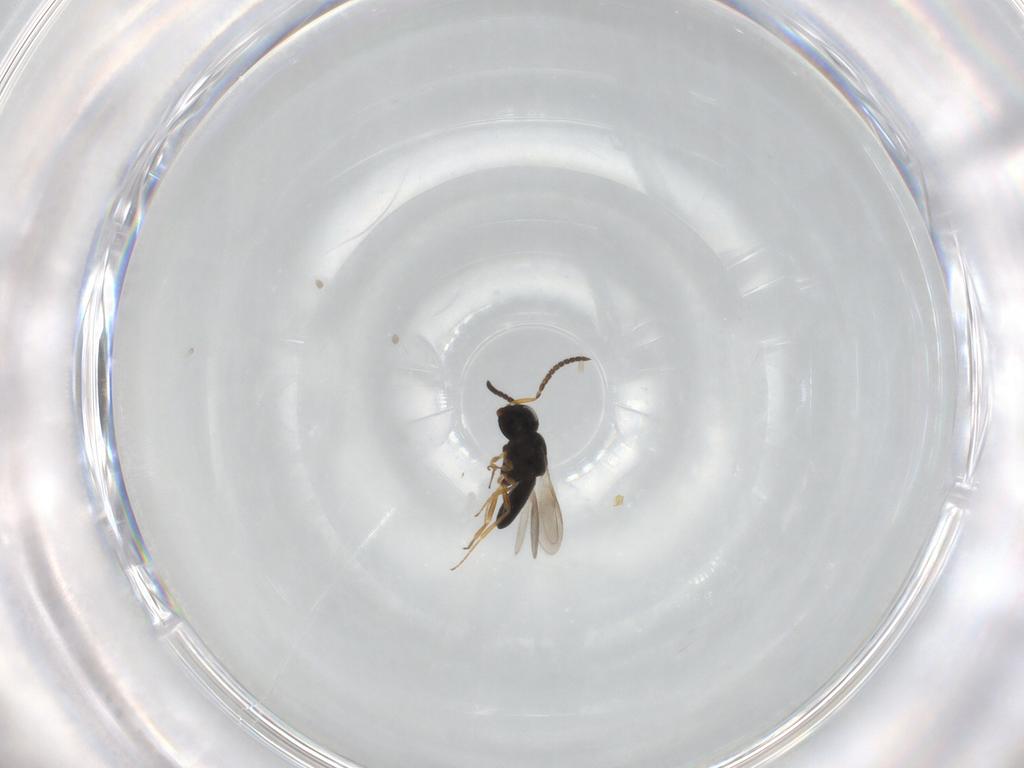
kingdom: Animalia
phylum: Arthropoda
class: Insecta
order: Hymenoptera
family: Scelionidae
